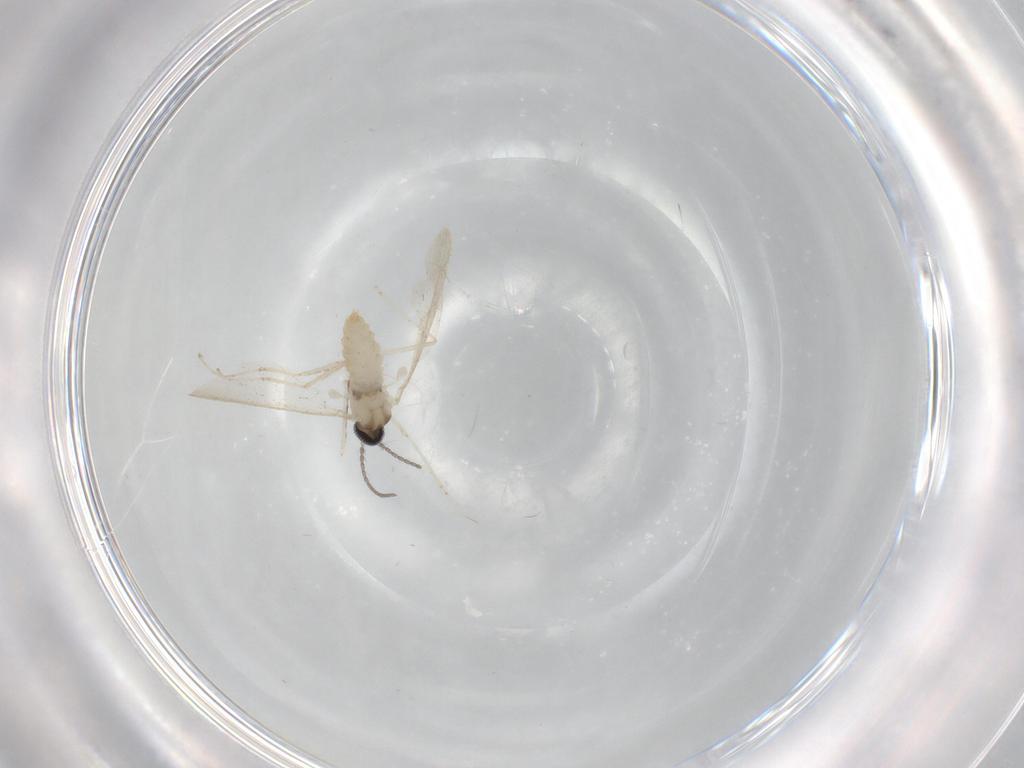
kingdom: Animalia
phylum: Arthropoda
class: Insecta
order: Diptera
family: Cecidomyiidae
